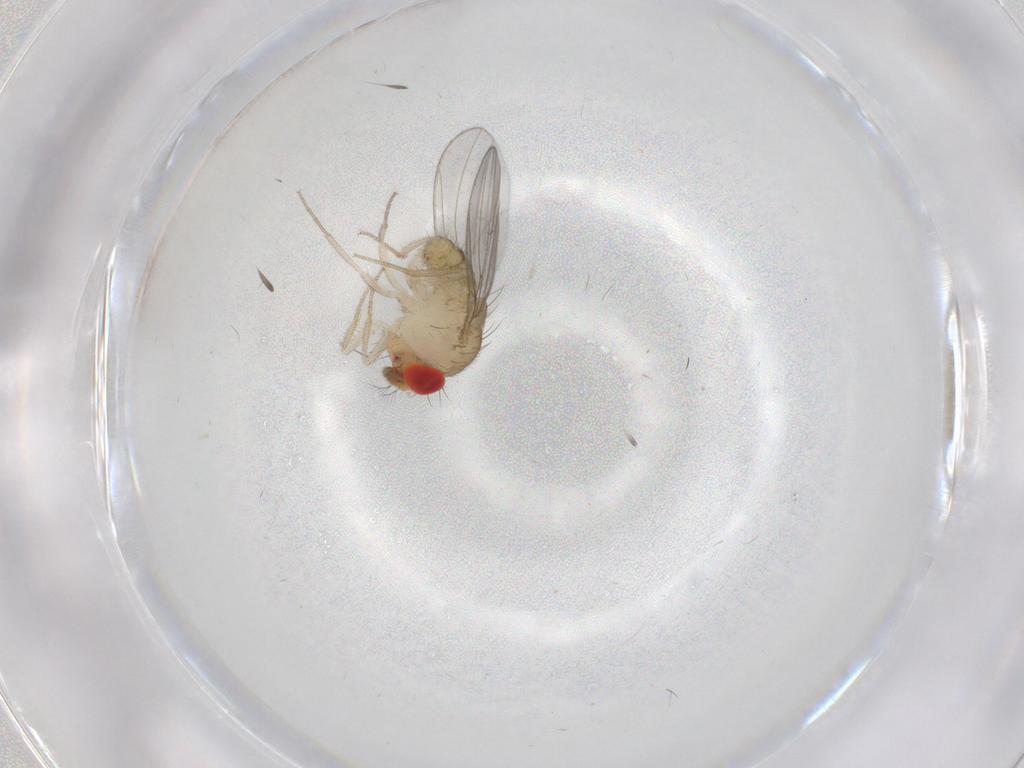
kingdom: Animalia
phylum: Arthropoda
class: Insecta
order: Diptera
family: Drosophilidae
